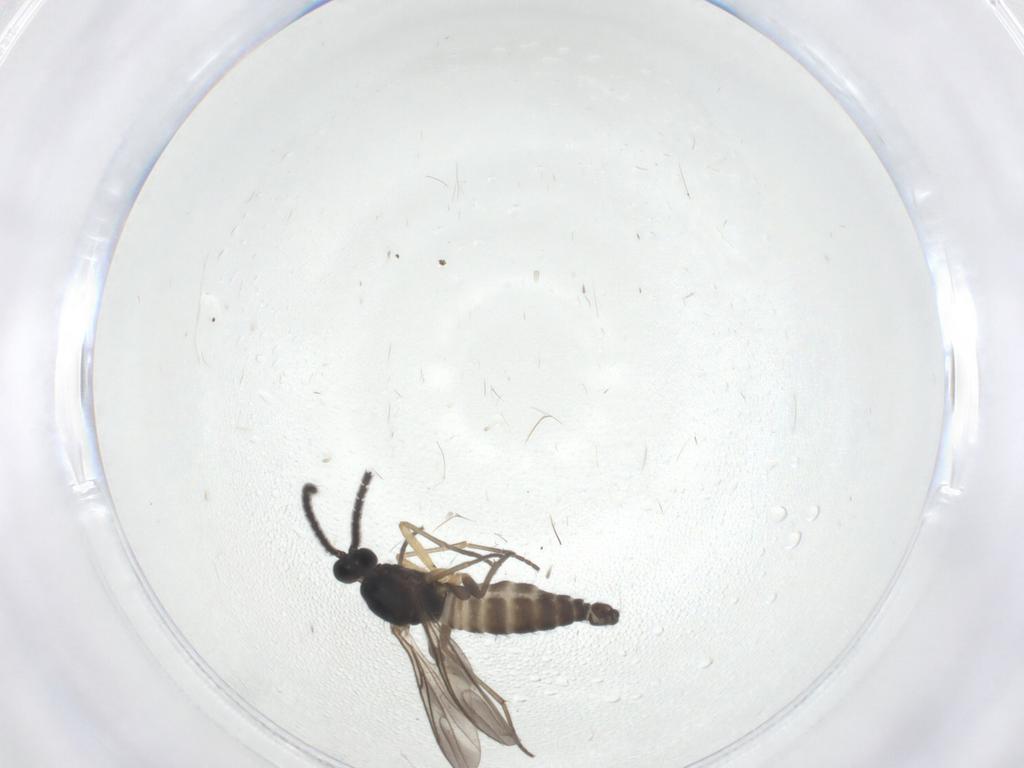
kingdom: Animalia
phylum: Arthropoda
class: Insecta
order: Diptera
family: Sciaridae
